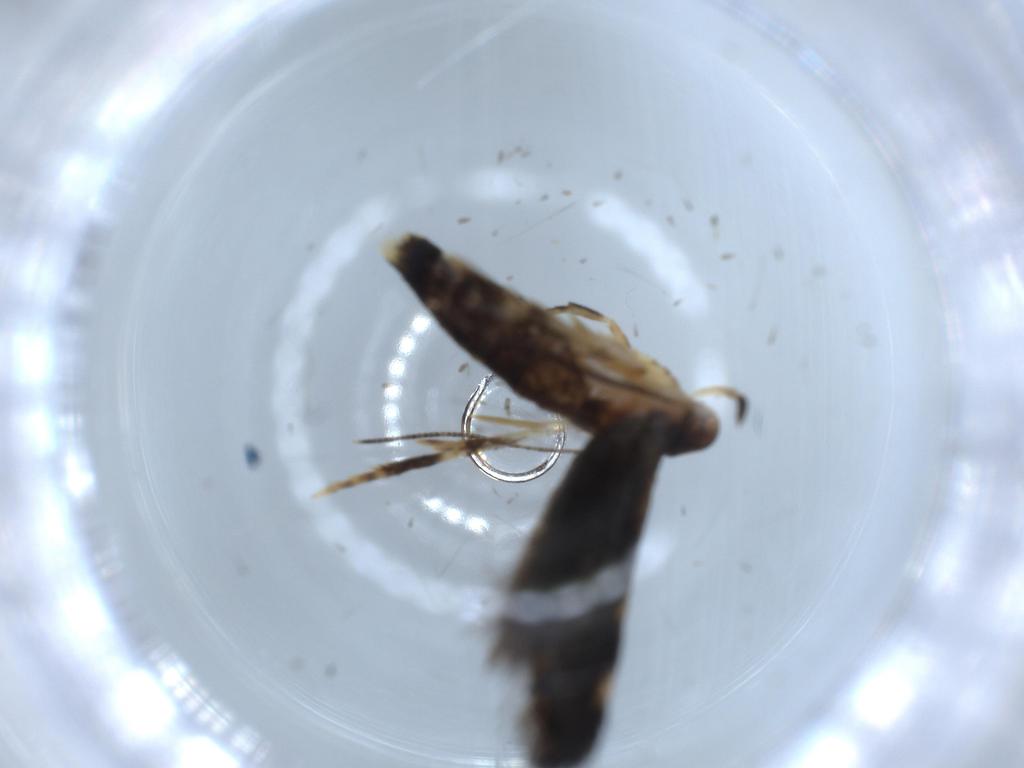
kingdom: Animalia
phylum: Arthropoda
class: Insecta
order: Lepidoptera
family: Momphidae
